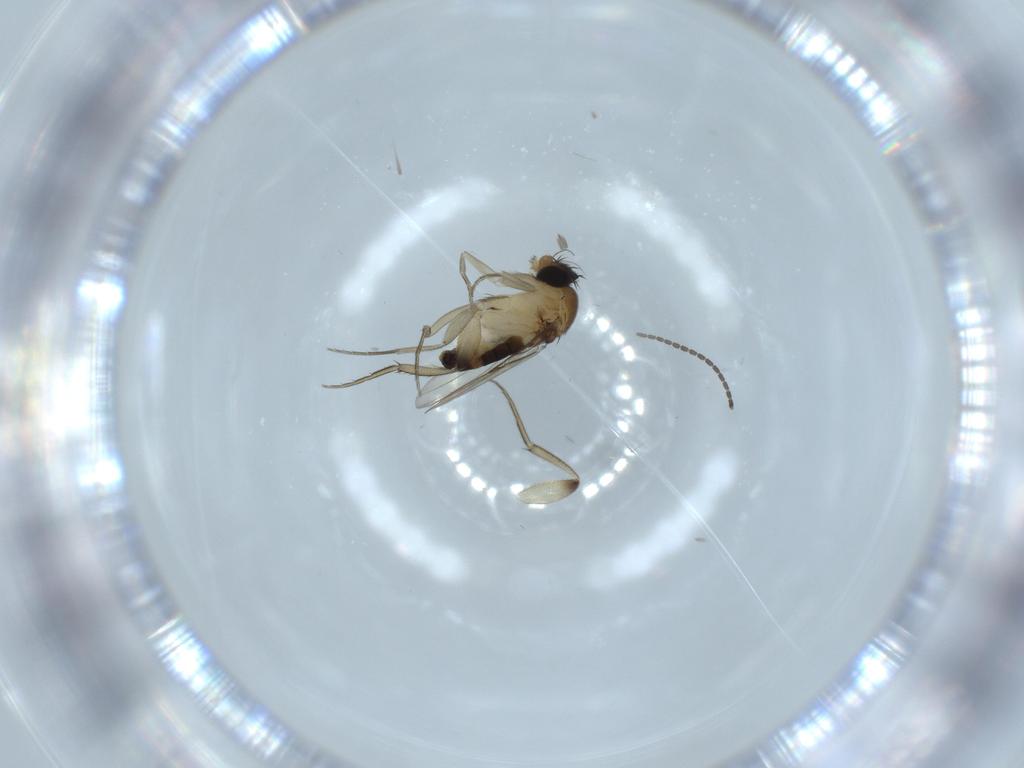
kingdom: Animalia
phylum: Arthropoda
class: Insecta
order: Diptera
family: Phoridae
